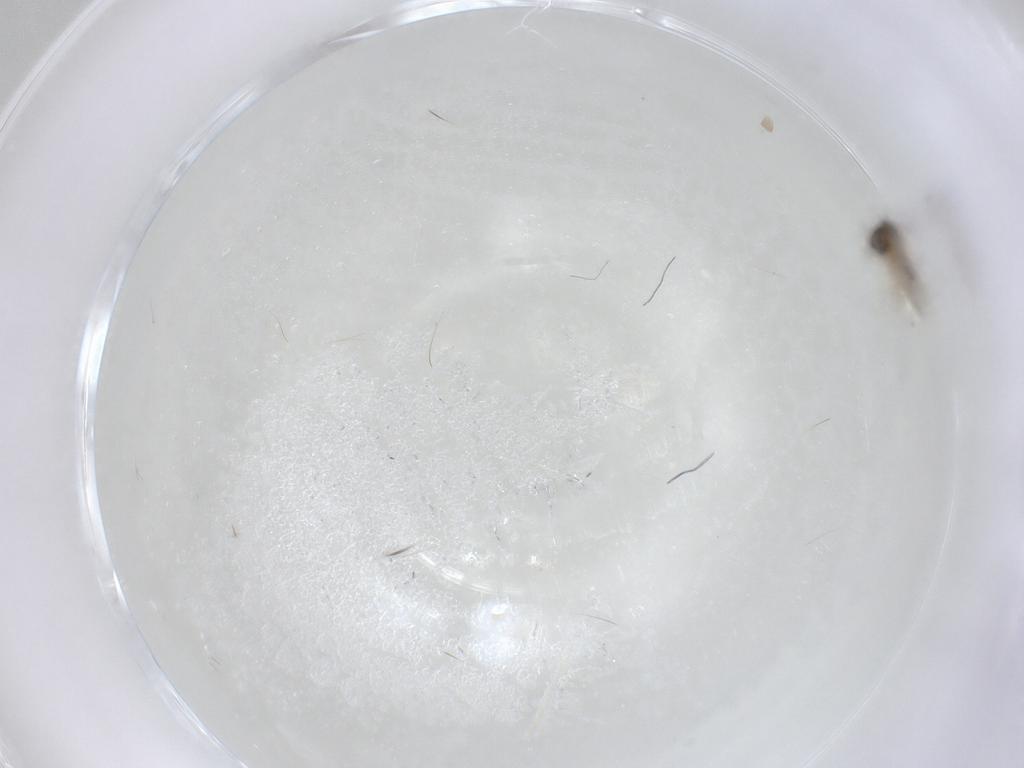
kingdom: Animalia
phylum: Arthropoda
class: Insecta
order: Diptera
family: Cecidomyiidae
